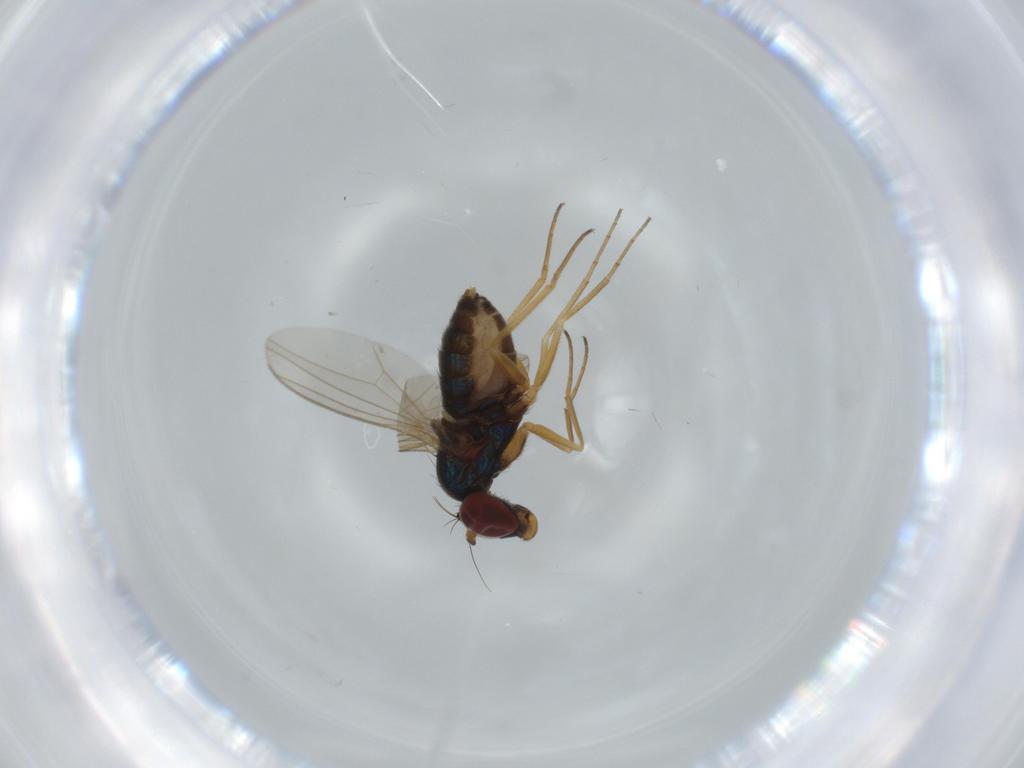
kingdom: Animalia
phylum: Arthropoda
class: Insecta
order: Diptera
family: Dolichopodidae
